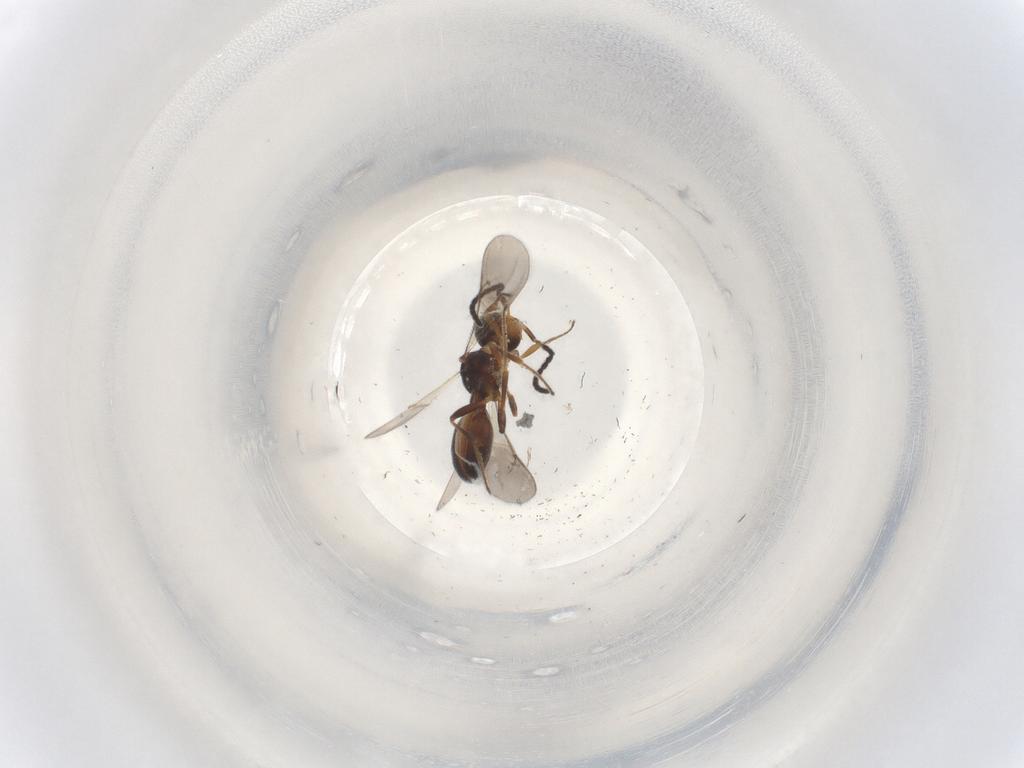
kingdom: Animalia
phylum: Arthropoda
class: Insecta
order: Hymenoptera
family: Scelionidae
